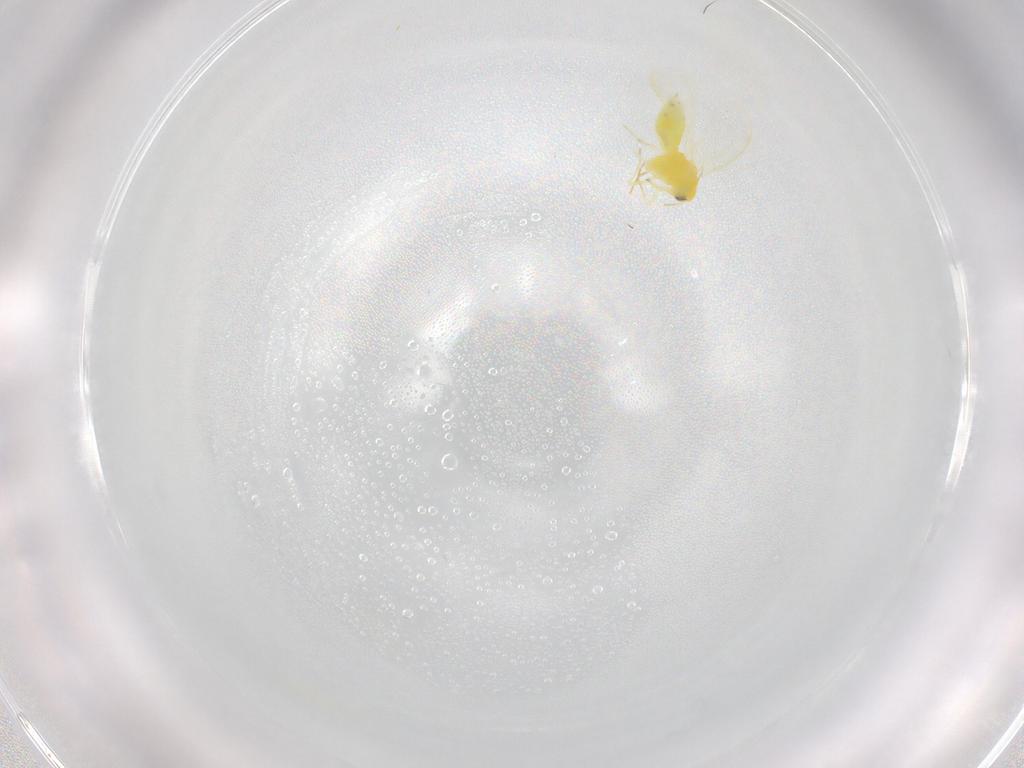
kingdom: Animalia
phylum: Arthropoda
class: Insecta
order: Hemiptera
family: Aleyrodidae
